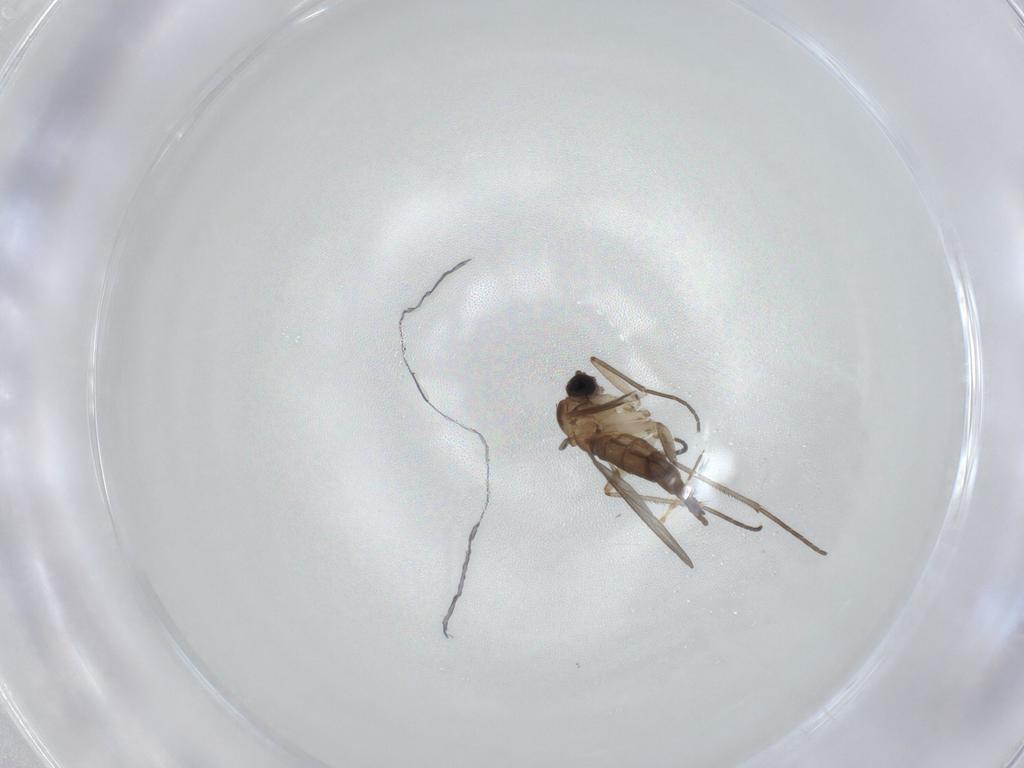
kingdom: Animalia
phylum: Arthropoda
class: Insecta
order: Diptera
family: Sciaridae
